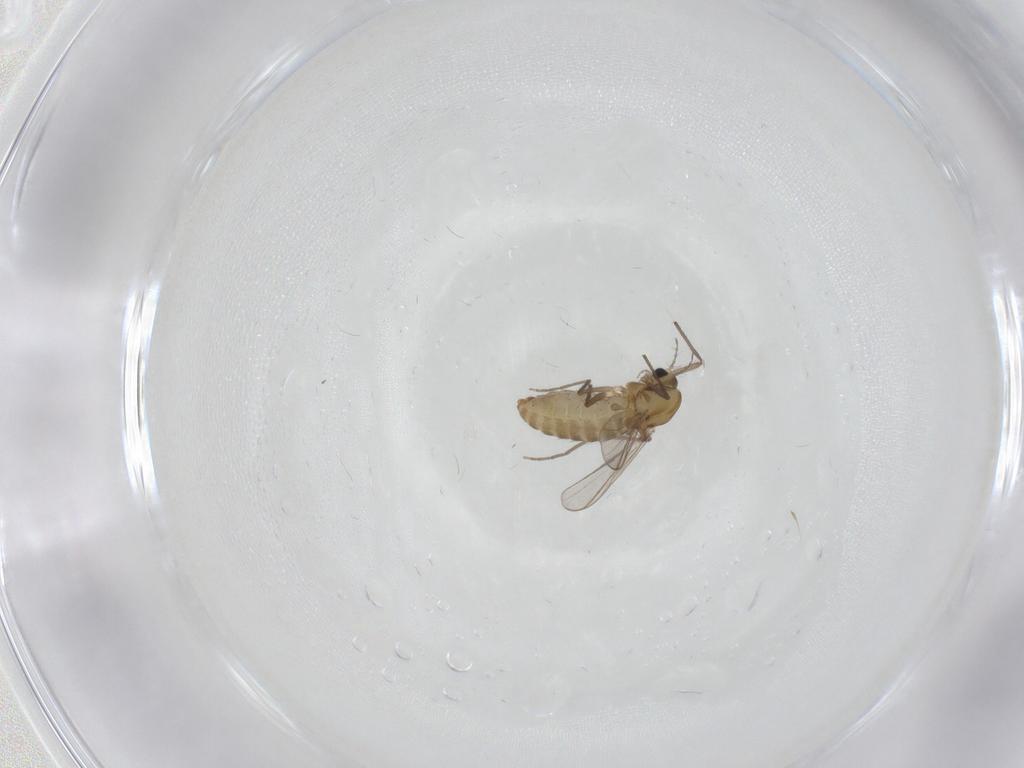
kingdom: Animalia
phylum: Arthropoda
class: Insecta
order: Diptera
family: Chironomidae
